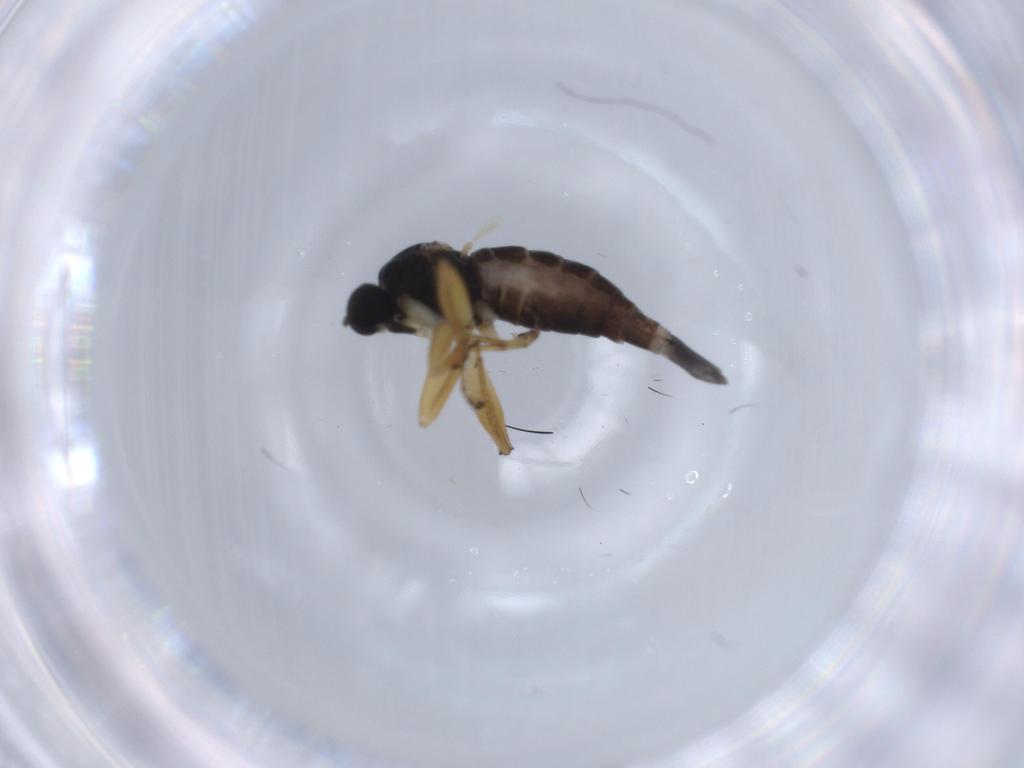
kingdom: Animalia
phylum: Arthropoda
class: Insecta
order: Diptera
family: Sciaridae
